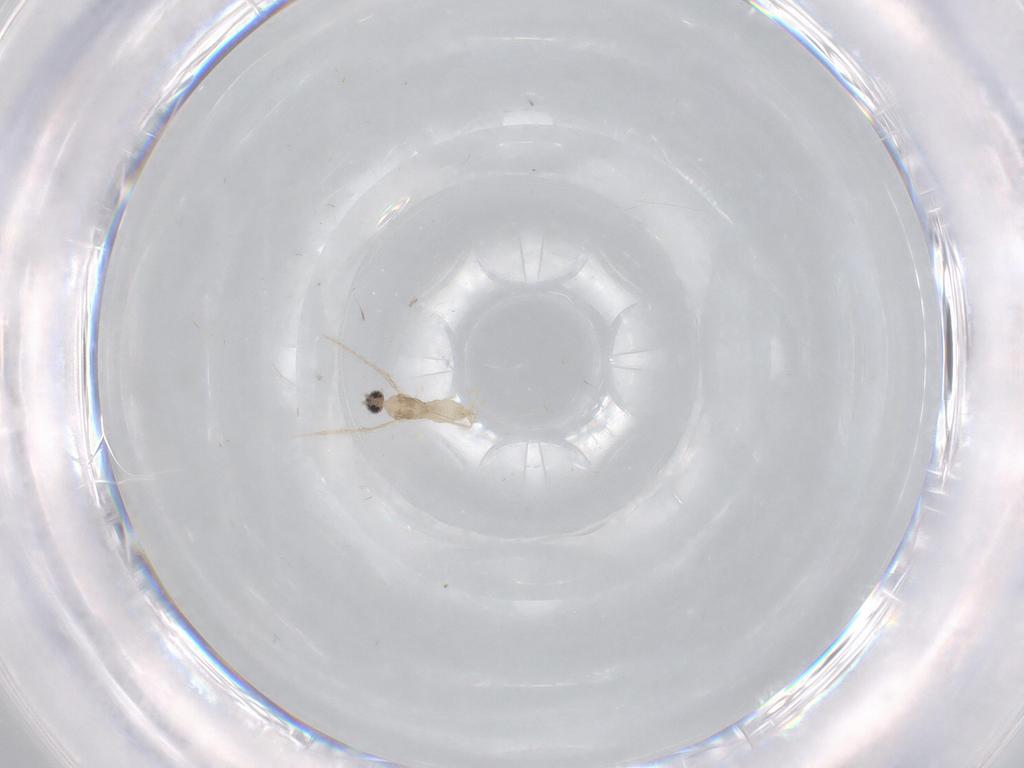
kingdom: Animalia
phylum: Arthropoda
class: Insecta
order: Diptera
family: Cecidomyiidae
